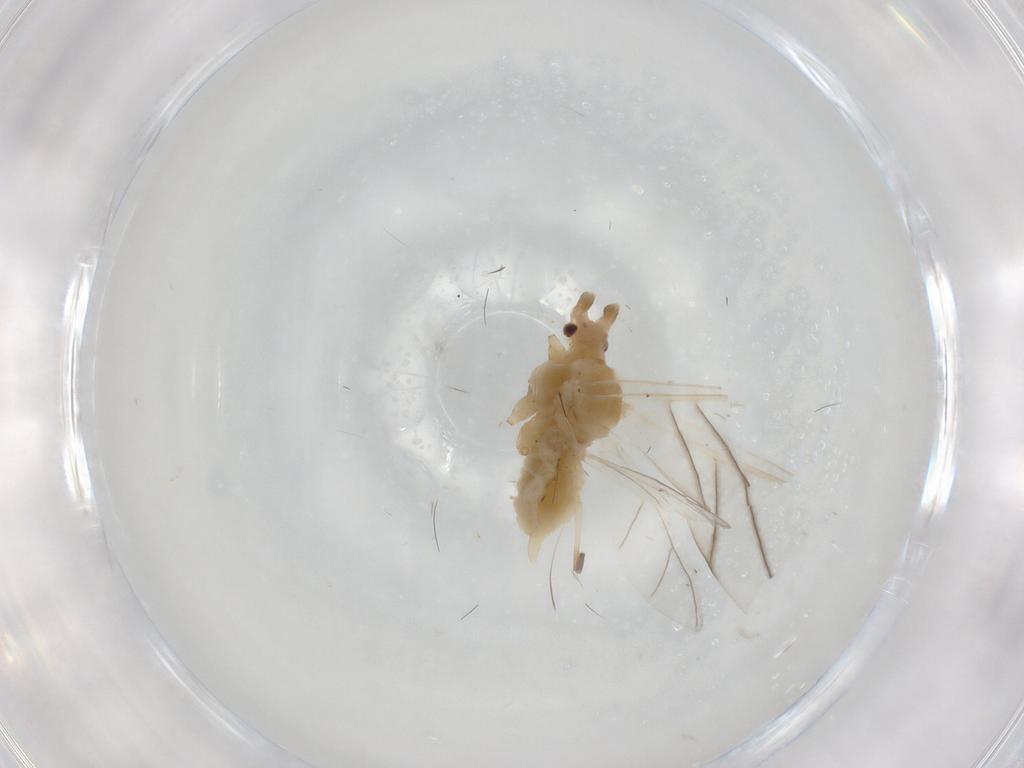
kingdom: Animalia
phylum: Arthropoda
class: Insecta
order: Hemiptera
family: Aphididae
